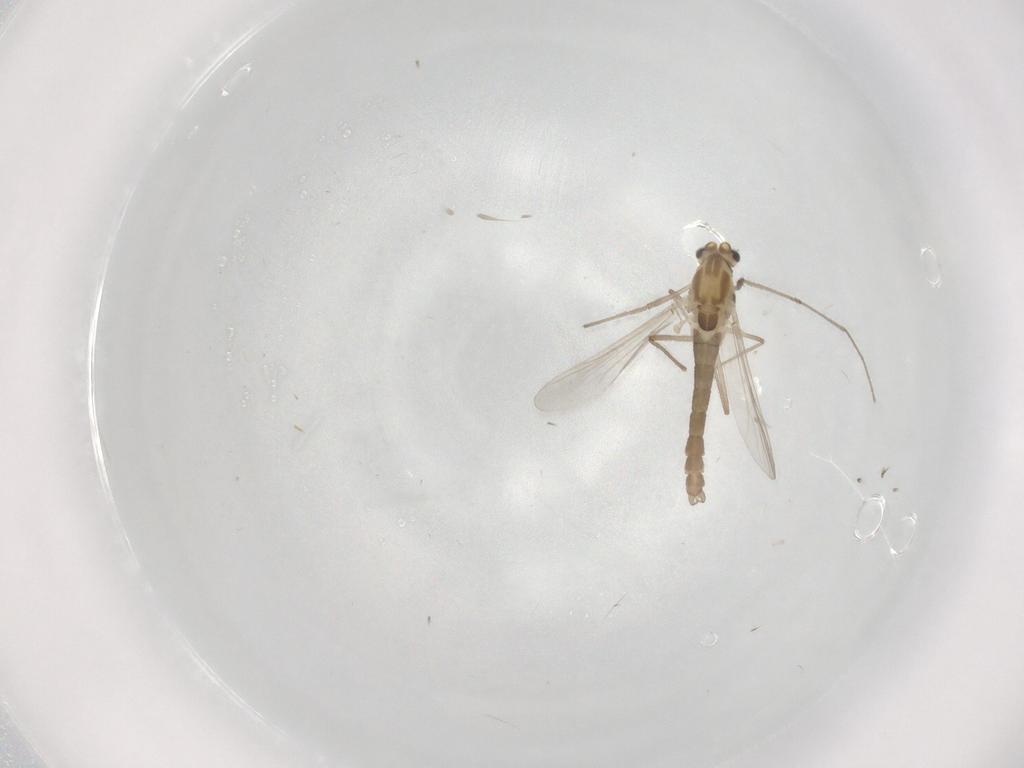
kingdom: Animalia
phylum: Arthropoda
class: Insecta
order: Diptera
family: Chironomidae
